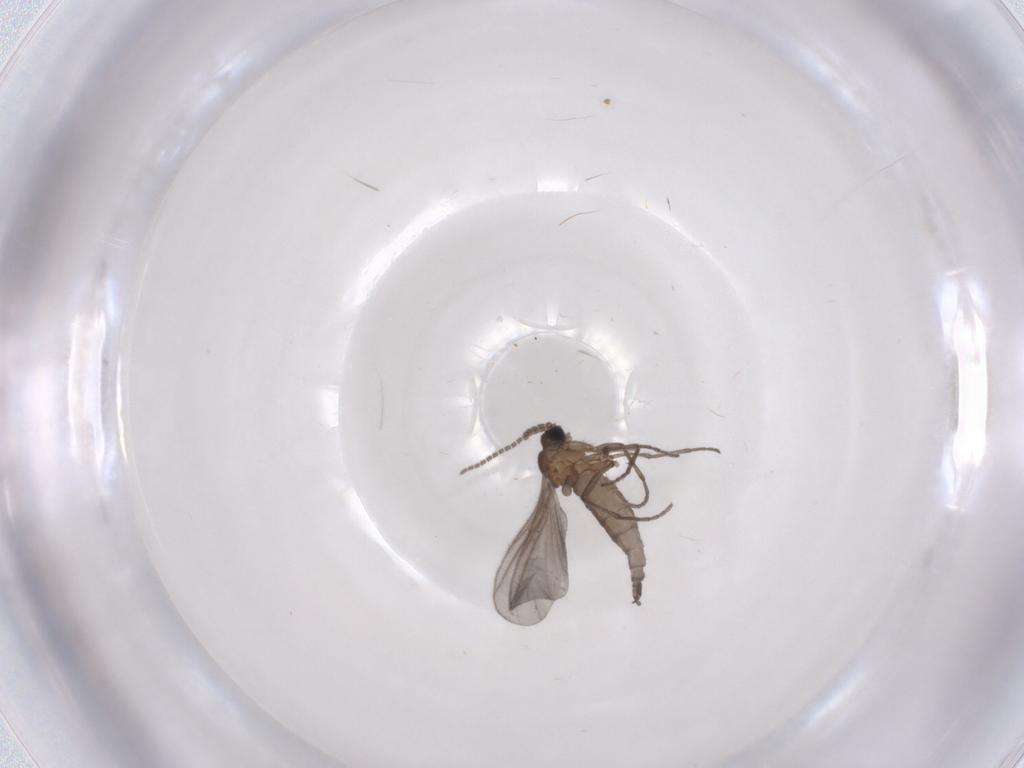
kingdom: Animalia
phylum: Arthropoda
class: Insecta
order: Diptera
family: Sciaridae
